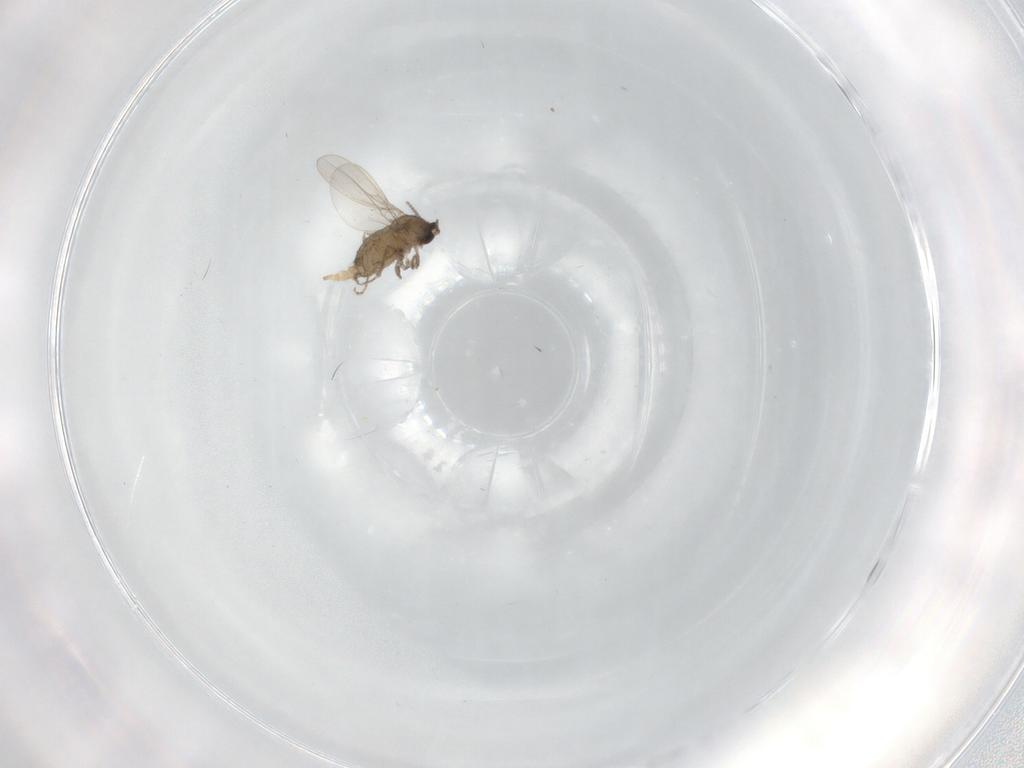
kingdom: Animalia
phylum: Arthropoda
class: Insecta
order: Diptera
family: Cecidomyiidae
